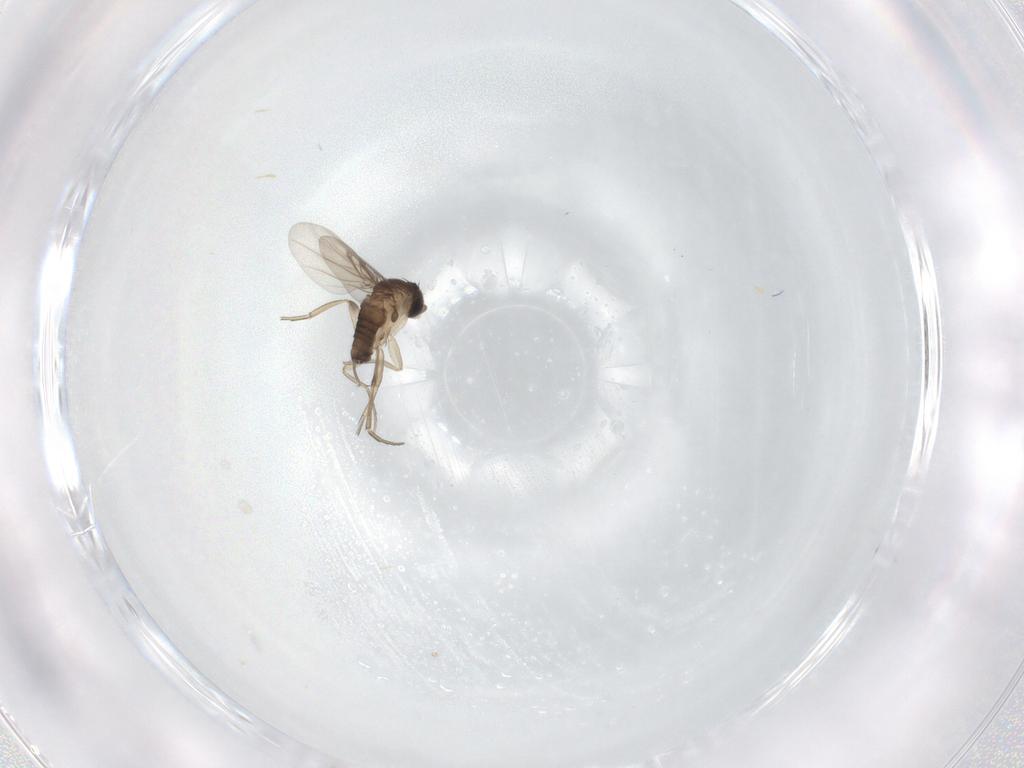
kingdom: Animalia
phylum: Arthropoda
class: Insecta
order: Diptera
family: Phoridae
